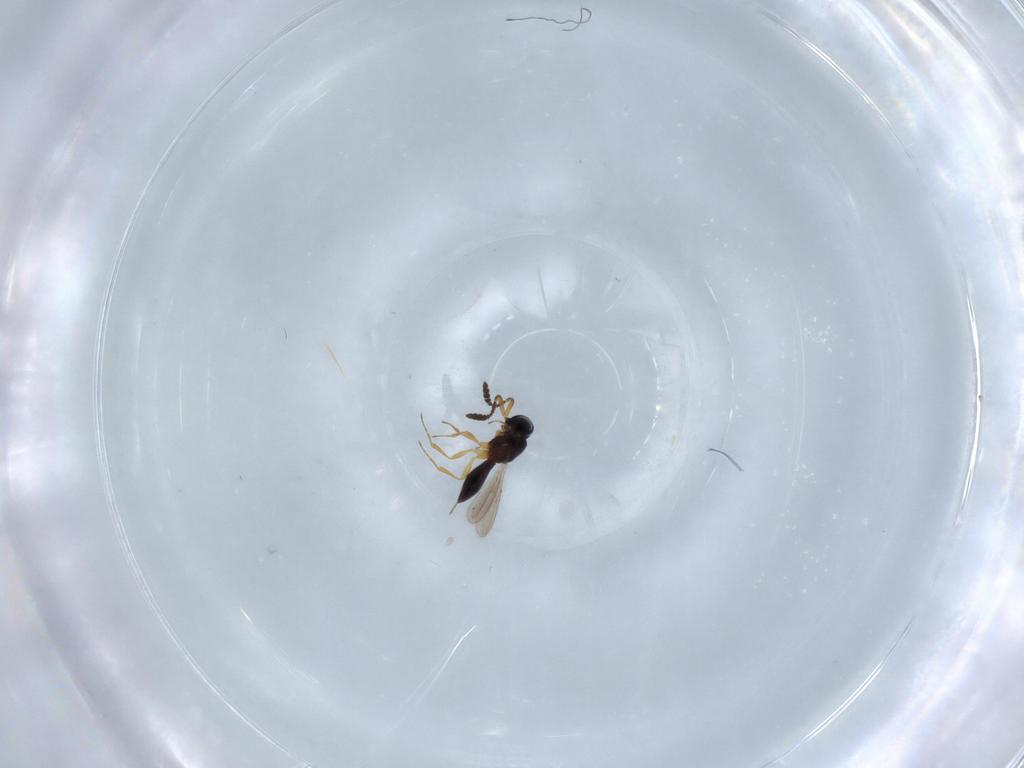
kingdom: Animalia
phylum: Arthropoda
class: Insecta
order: Hymenoptera
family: Scelionidae
